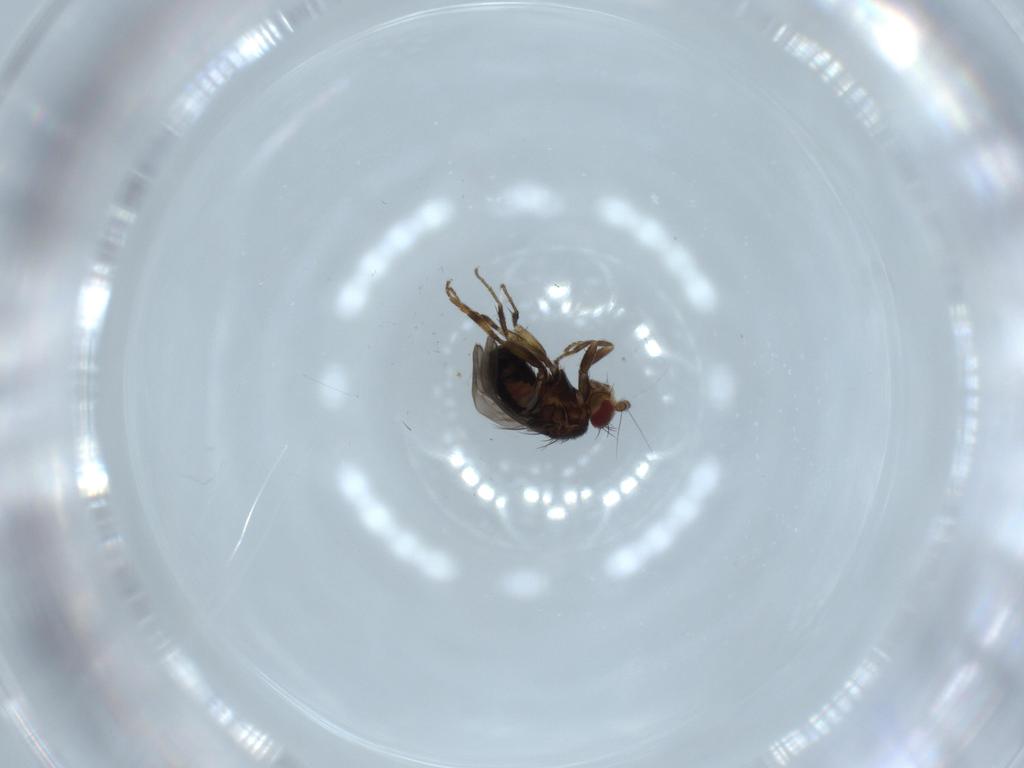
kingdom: Animalia
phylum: Arthropoda
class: Insecta
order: Diptera
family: Sphaeroceridae
